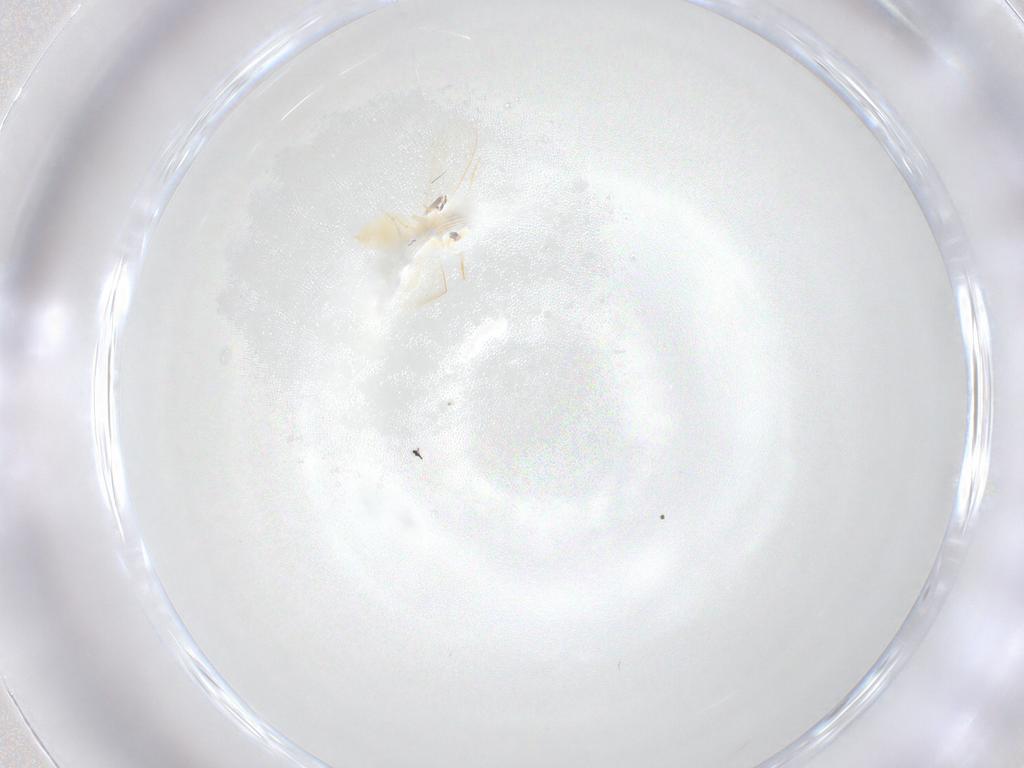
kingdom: Animalia
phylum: Arthropoda
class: Insecta
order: Hemiptera
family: Aleyrodidae
